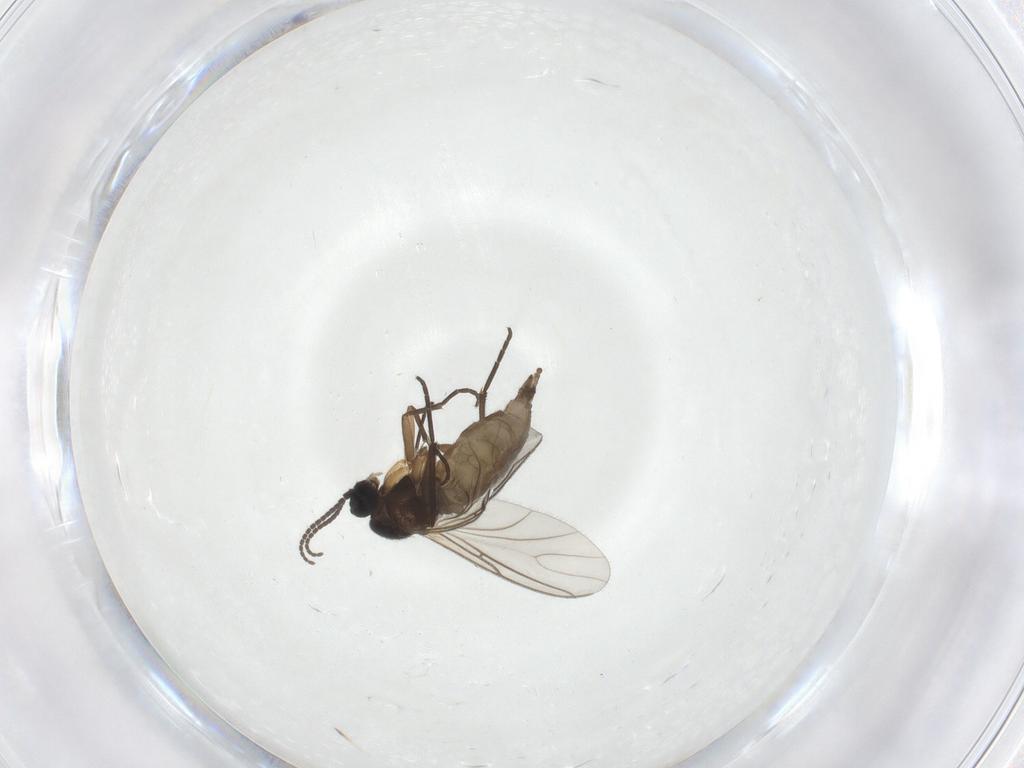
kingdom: Animalia
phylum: Arthropoda
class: Insecta
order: Diptera
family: Sciaridae
